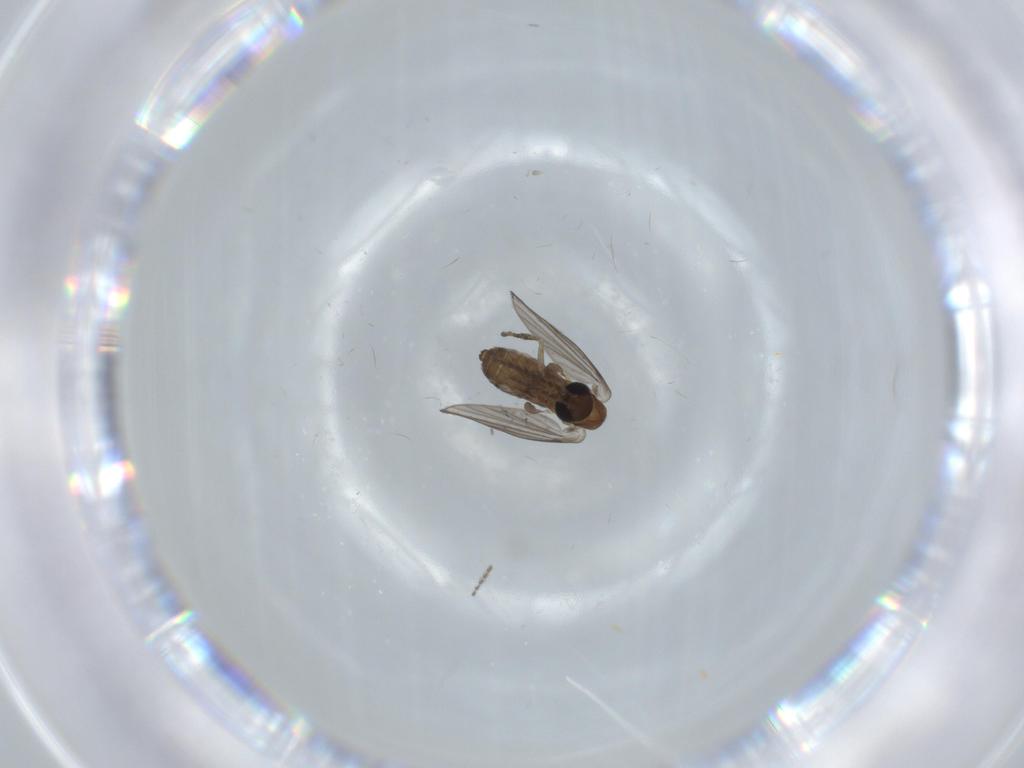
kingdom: Animalia
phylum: Arthropoda
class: Insecta
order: Diptera
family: Psychodidae
